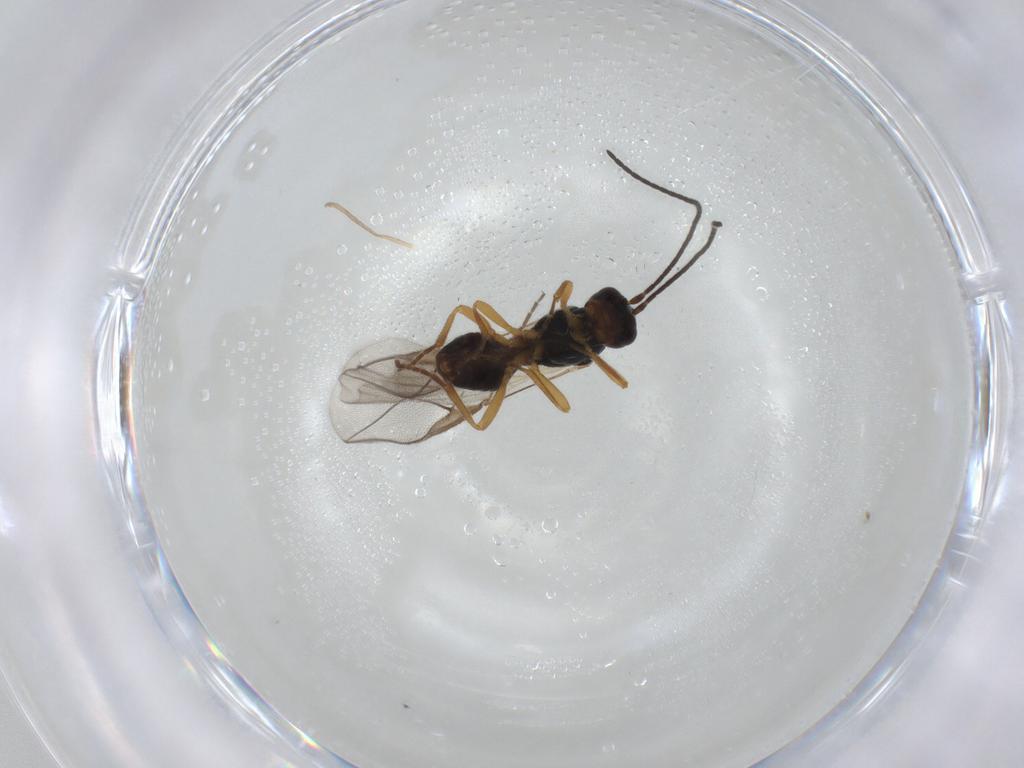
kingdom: Animalia
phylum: Arthropoda
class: Insecta
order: Hymenoptera
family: Braconidae
